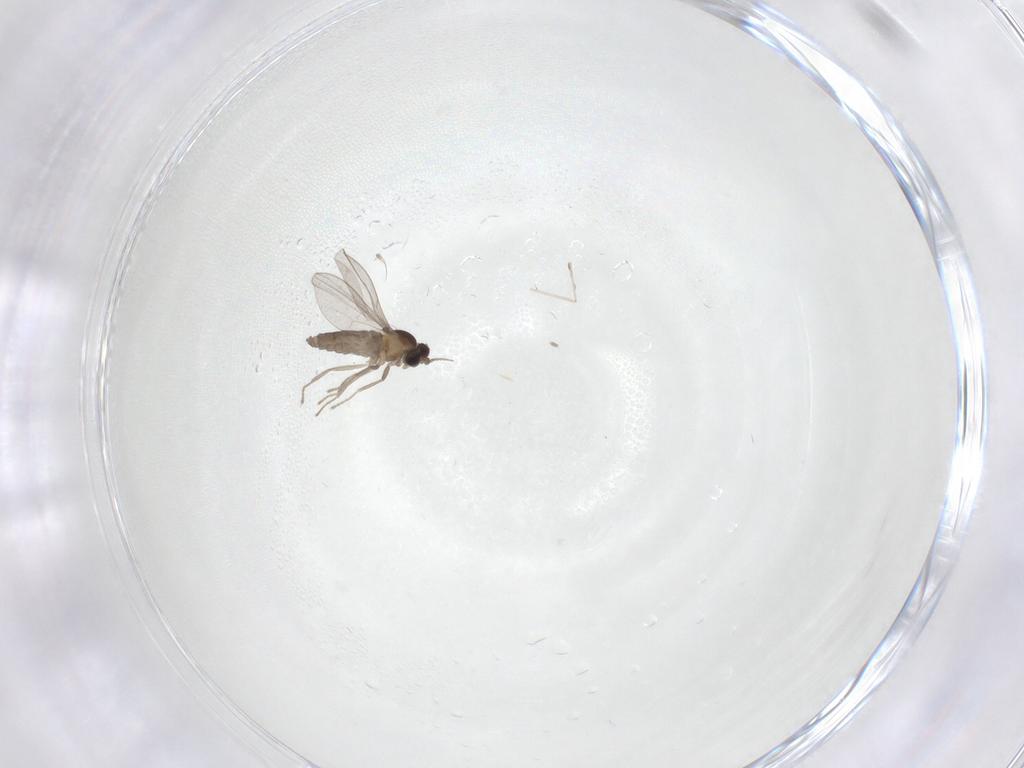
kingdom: Animalia
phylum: Arthropoda
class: Insecta
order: Diptera
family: Cecidomyiidae
